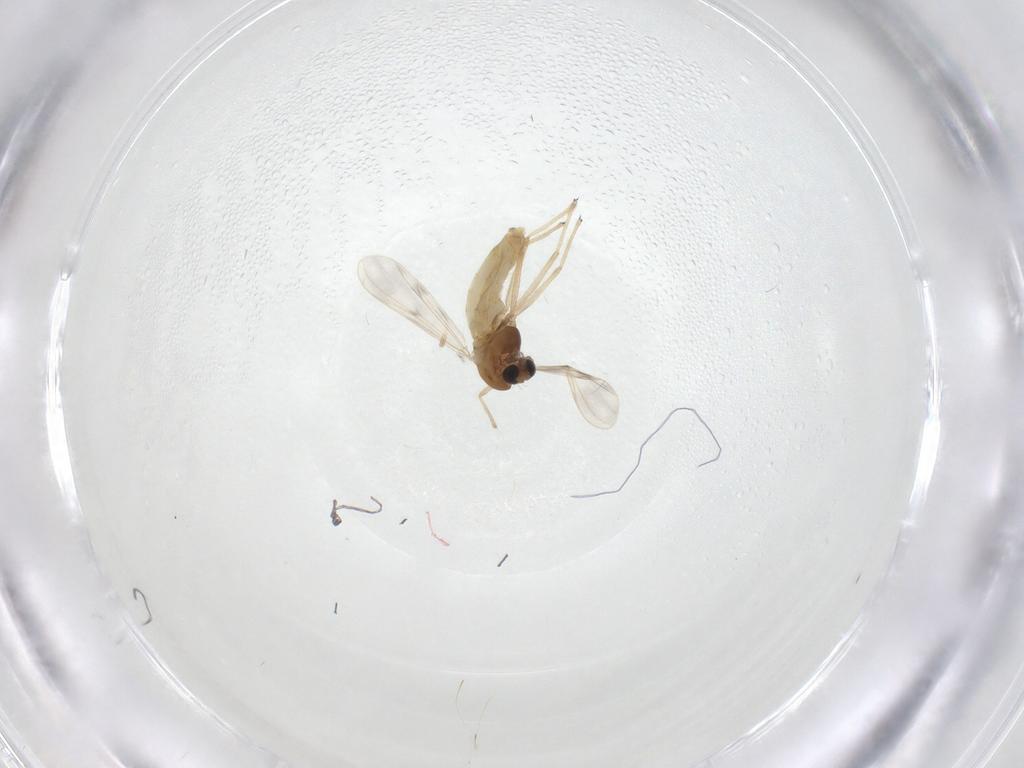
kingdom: Animalia
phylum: Arthropoda
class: Insecta
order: Diptera
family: Chironomidae
